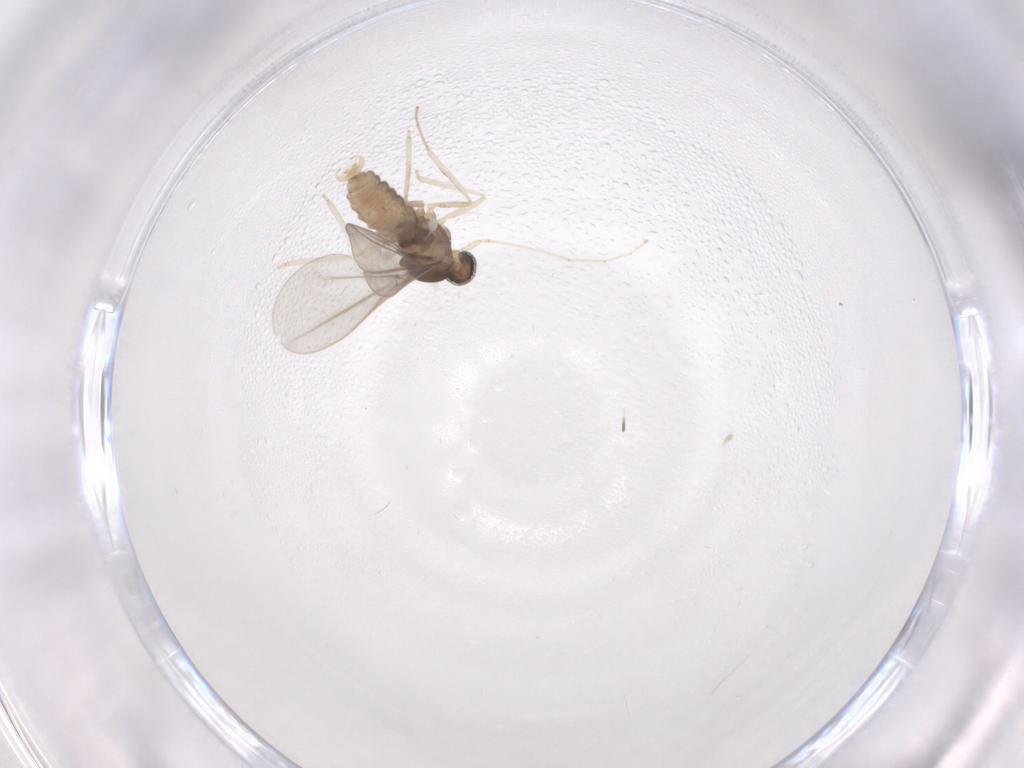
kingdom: Animalia
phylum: Arthropoda
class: Insecta
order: Diptera
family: Cecidomyiidae
